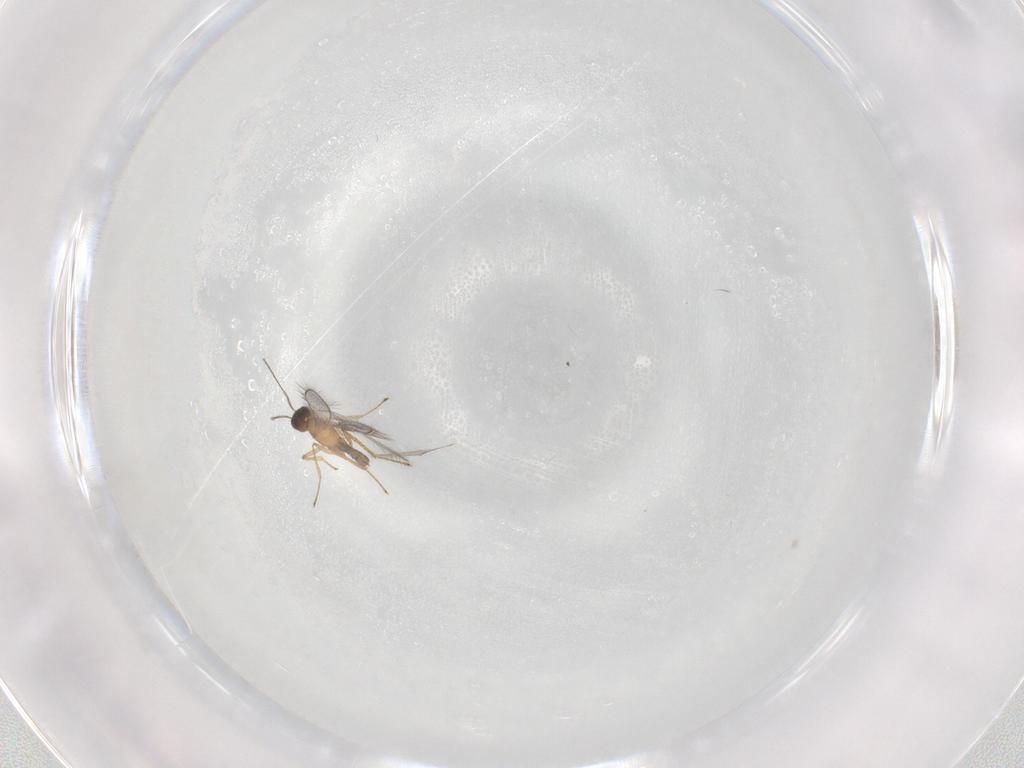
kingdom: Animalia
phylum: Arthropoda
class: Insecta
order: Hymenoptera
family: Mymaridae
